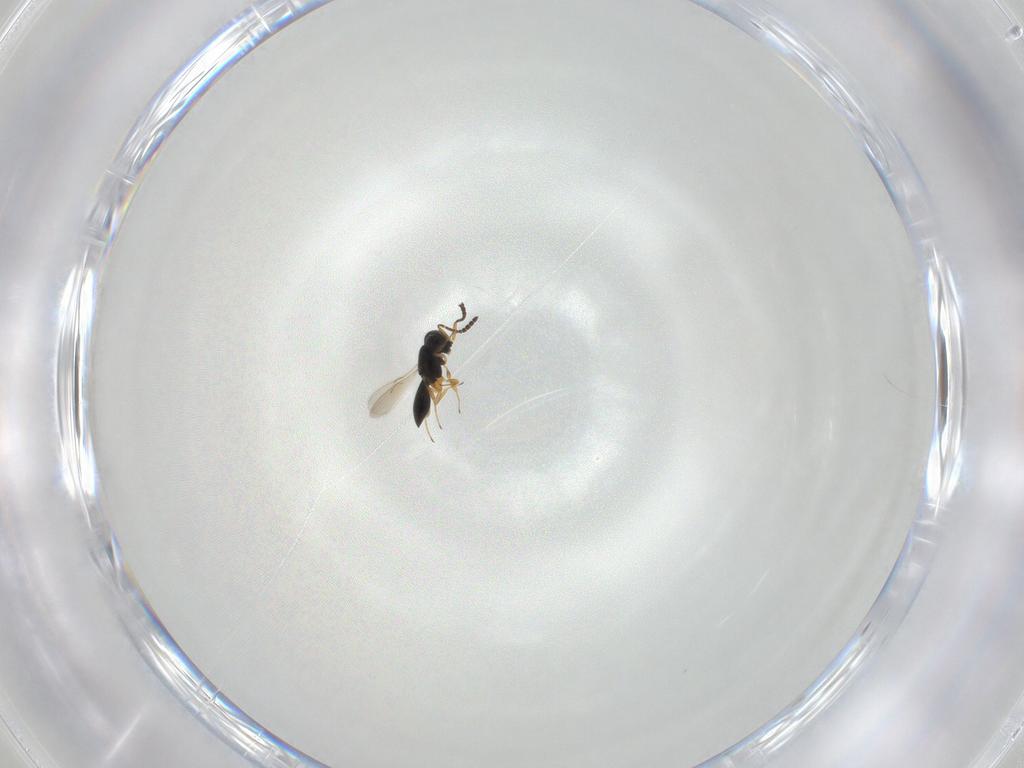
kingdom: Animalia
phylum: Arthropoda
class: Insecta
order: Hymenoptera
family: Scelionidae
